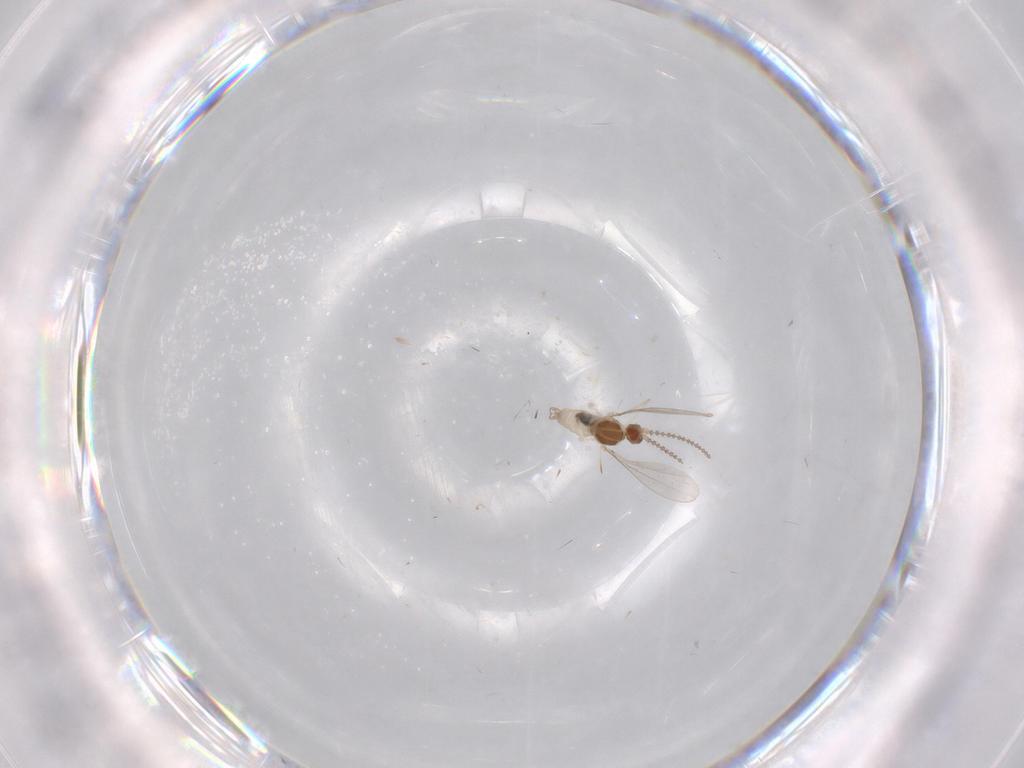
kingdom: Animalia
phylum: Arthropoda
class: Insecta
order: Diptera
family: Cecidomyiidae
